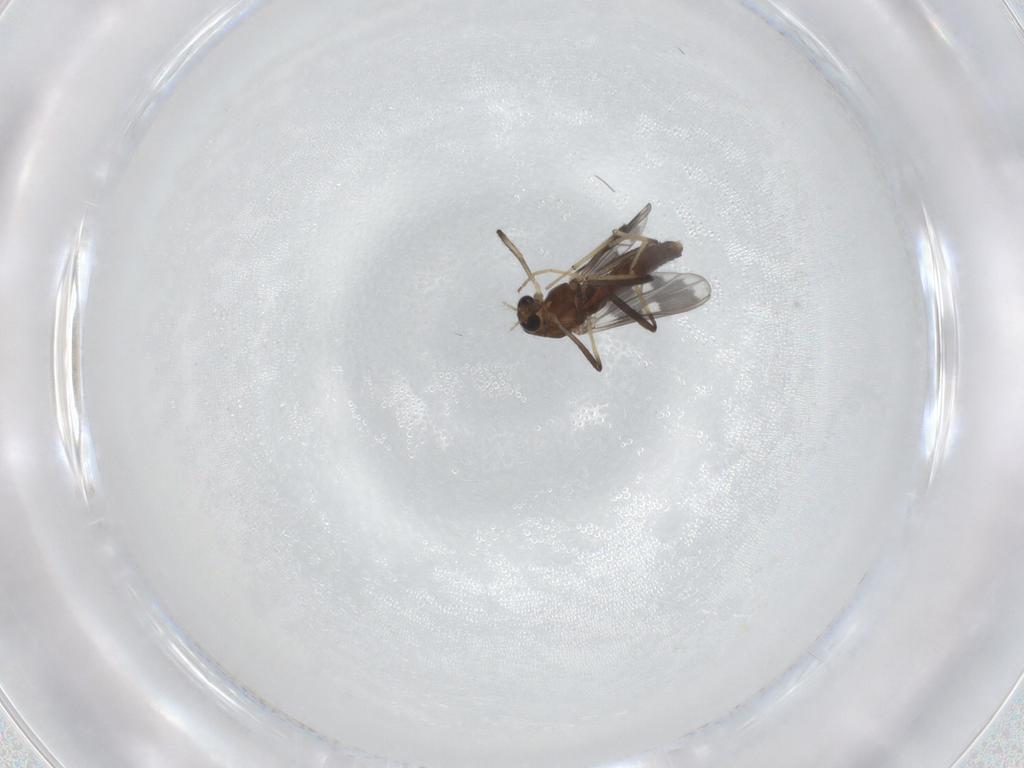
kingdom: Animalia
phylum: Arthropoda
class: Insecta
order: Diptera
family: Chironomidae
